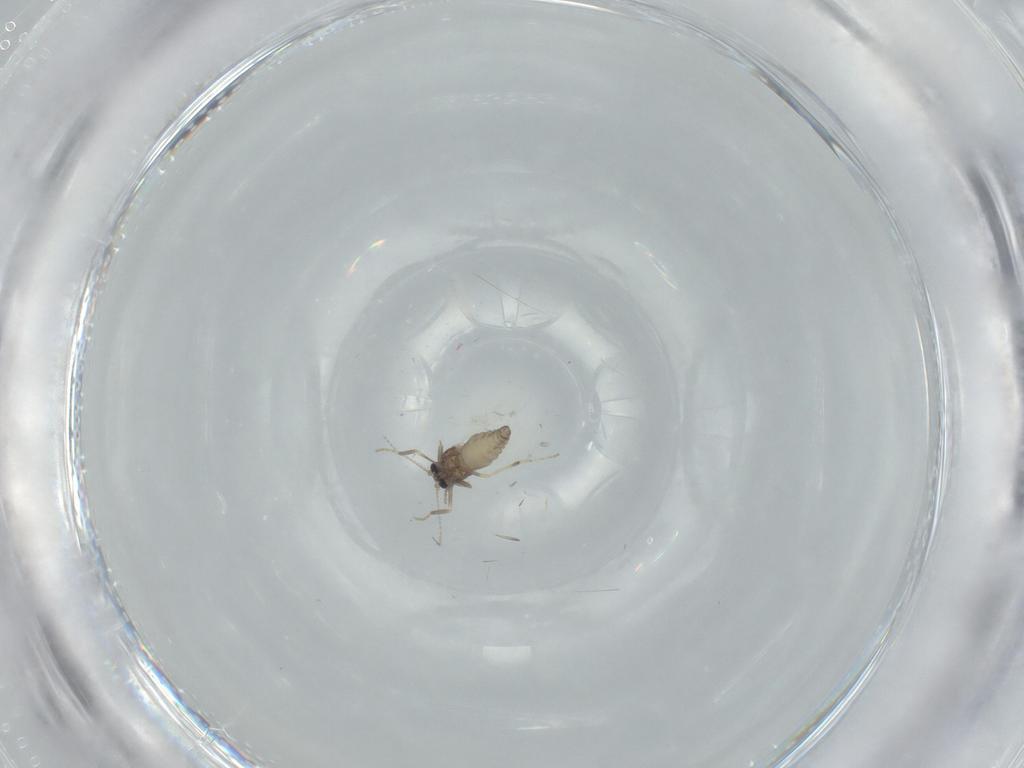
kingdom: Animalia
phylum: Arthropoda
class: Insecta
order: Diptera
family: Ceratopogonidae
